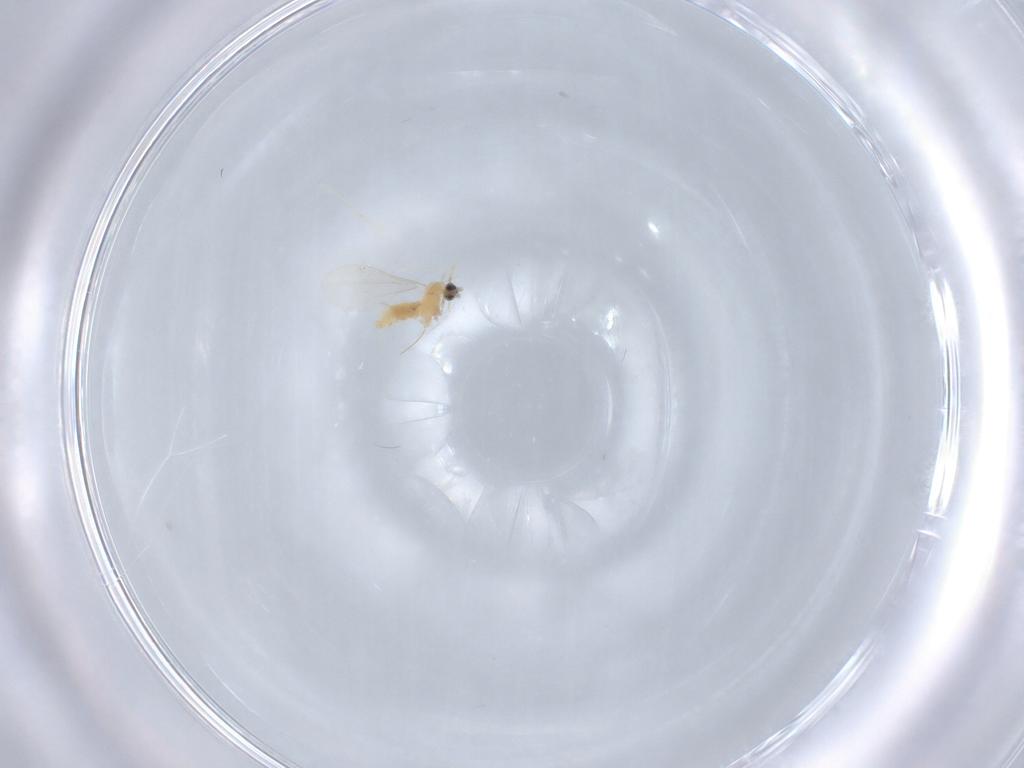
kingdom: Animalia
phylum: Arthropoda
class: Insecta
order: Diptera
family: Cecidomyiidae
